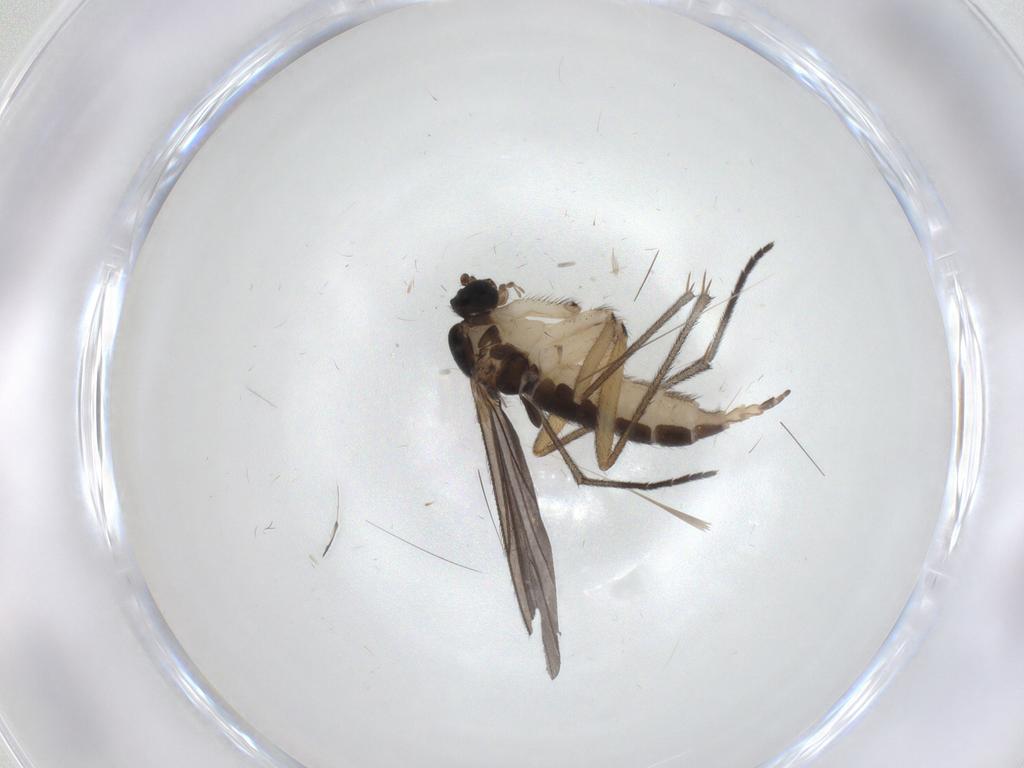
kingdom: Animalia
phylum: Arthropoda
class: Insecta
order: Diptera
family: Sciaridae
